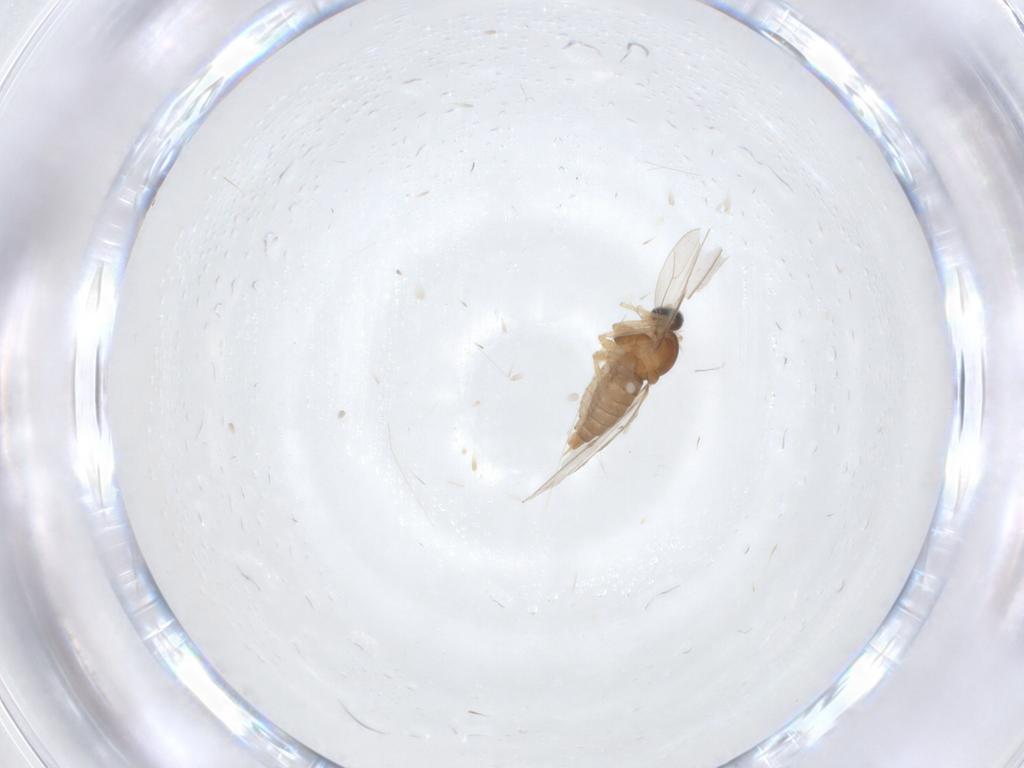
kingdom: Animalia
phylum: Arthropoda
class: Insecta
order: Diptera
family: Cecidomyiidae
